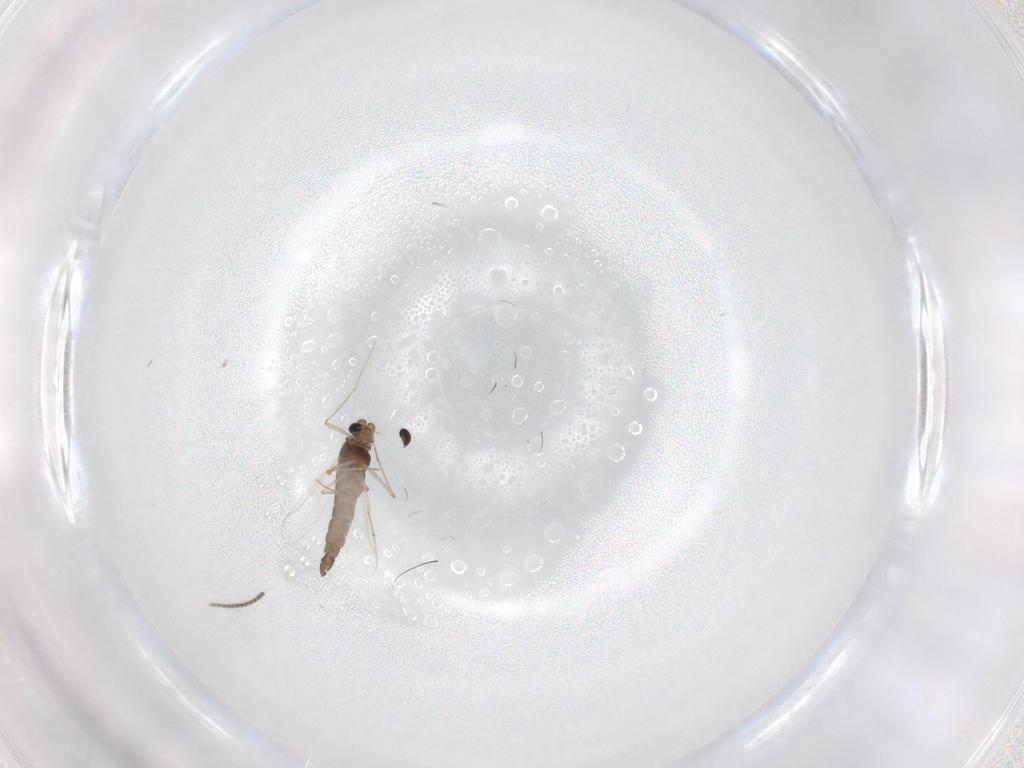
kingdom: Animalia
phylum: Arthropoda
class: Insecta
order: Diptera
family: Chironomidae
